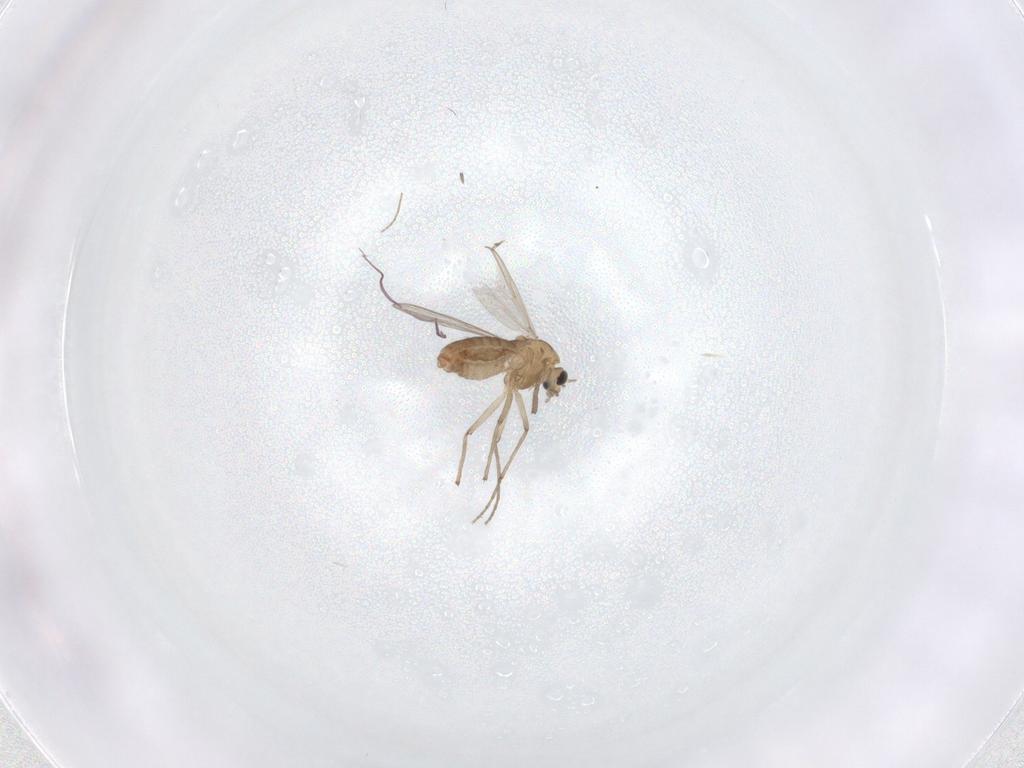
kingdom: Animalia
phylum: Arthropoda
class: Insecta
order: Diptera
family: Chironomidae
